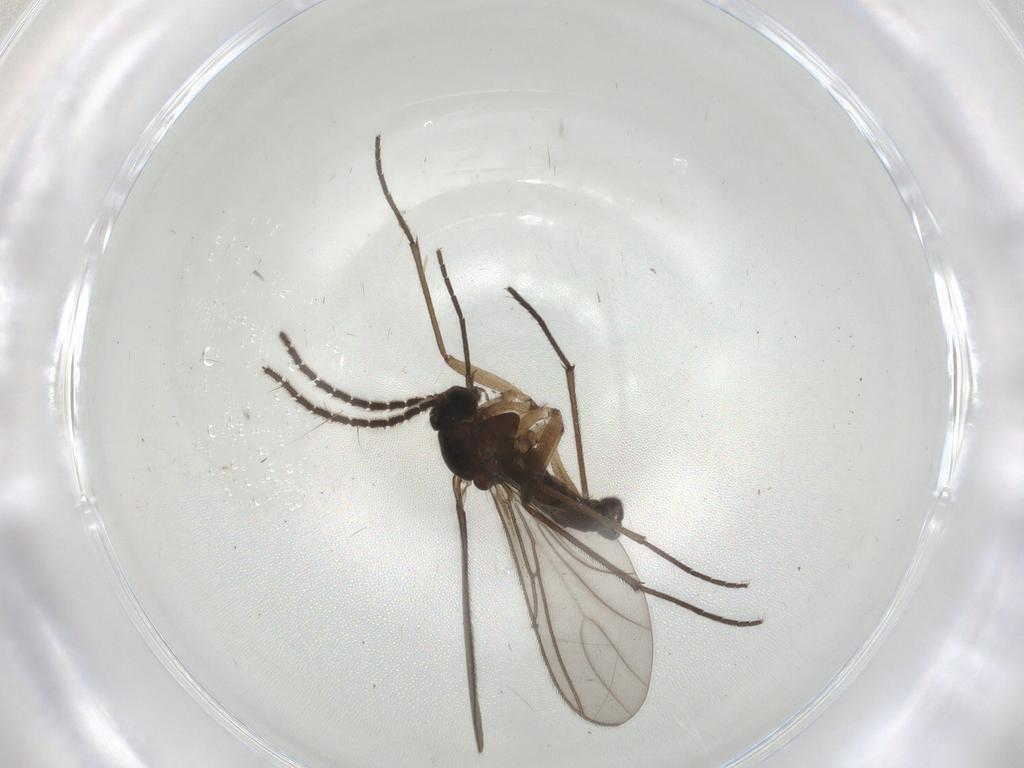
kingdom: Animalia
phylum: Arthropoda
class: Insecta
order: Diptera
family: Sciaridae
